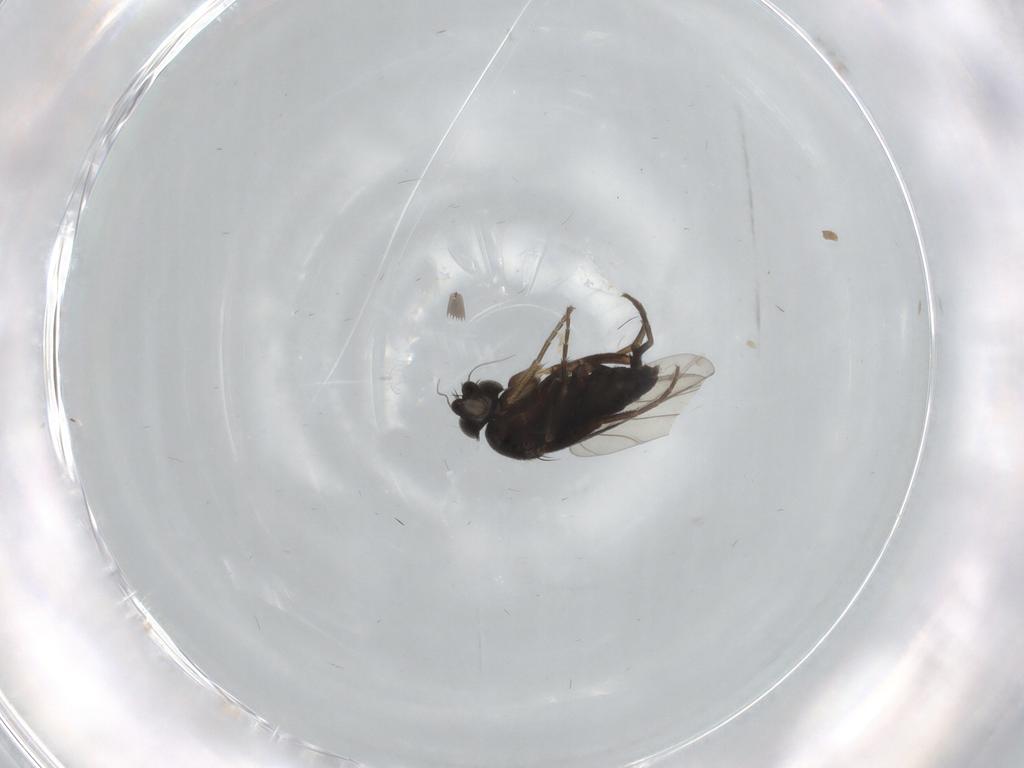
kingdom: Animalia
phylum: Arthropoda
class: Insecta
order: Diptera
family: Phoridae
